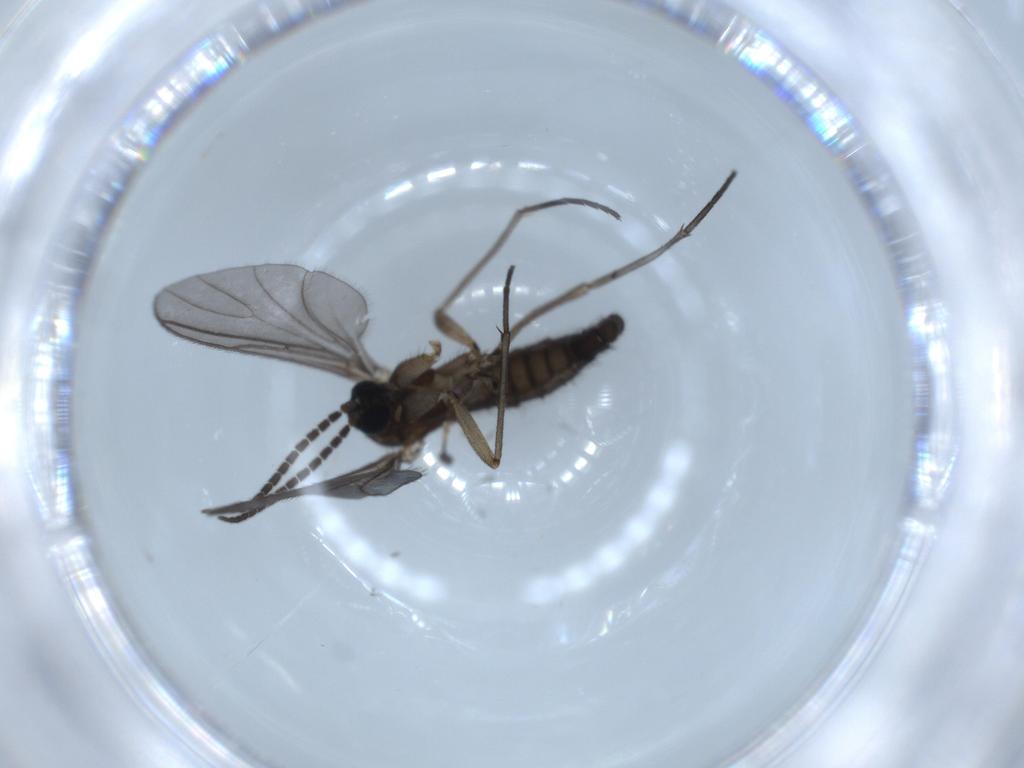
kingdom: Animalia
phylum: Arthropoda
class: Insecta
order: Diptera
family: Sciaridae
